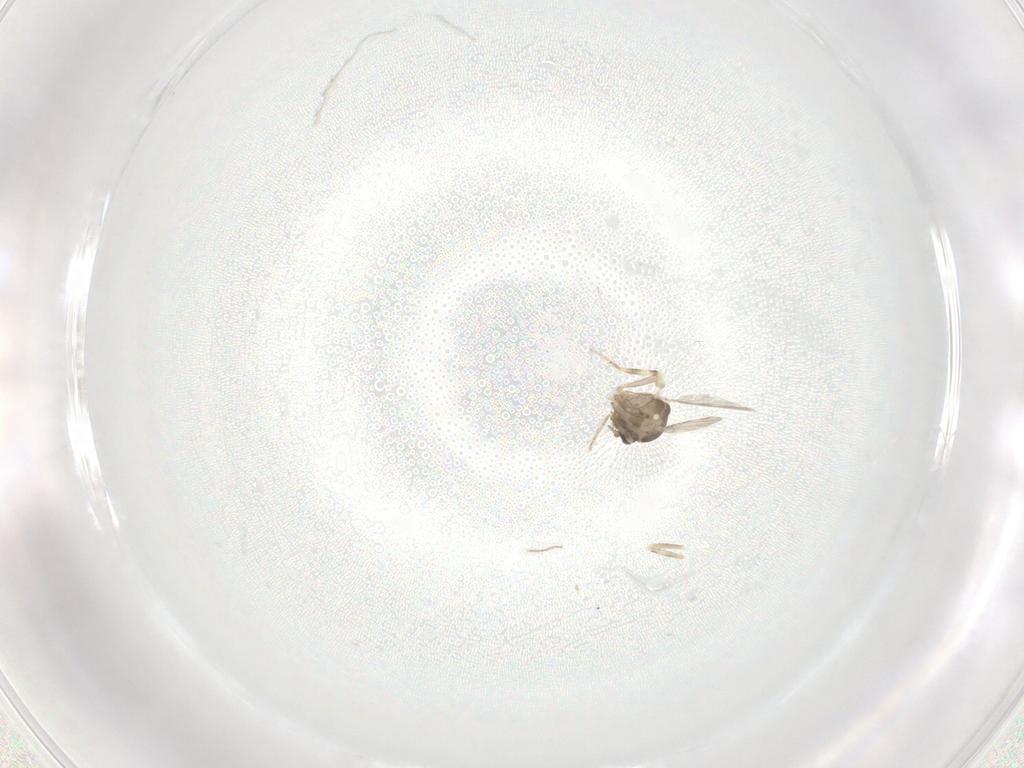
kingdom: Animalia
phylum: Arthropoda
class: Insecta
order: Diptera
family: Ceratopogonidae
